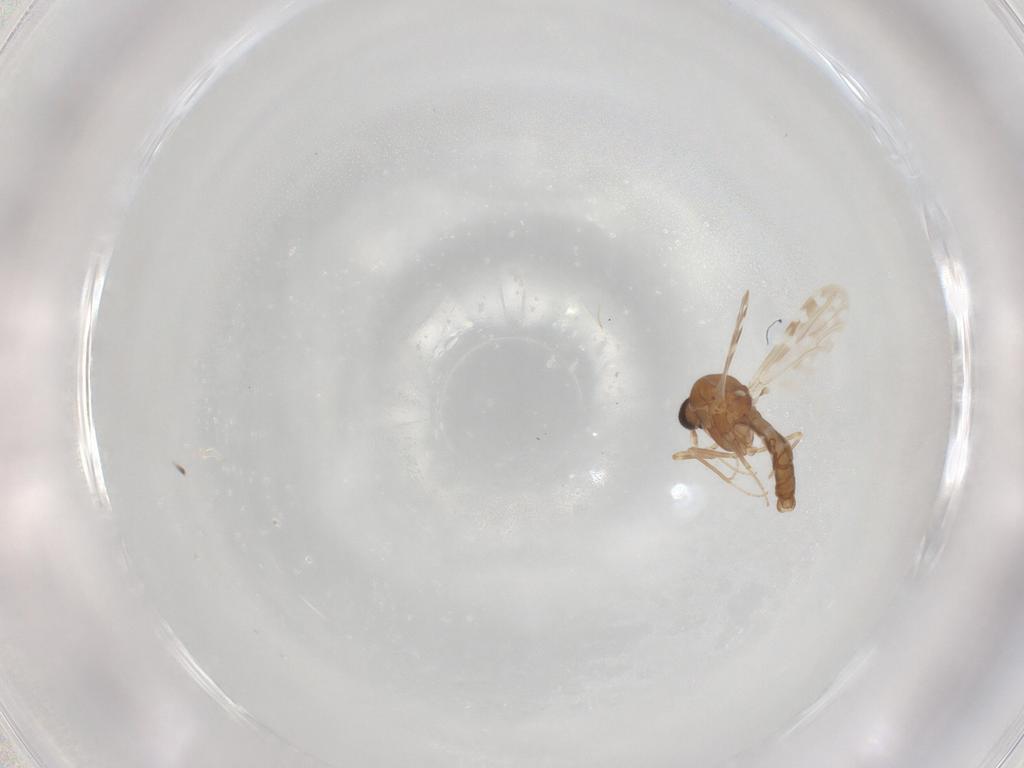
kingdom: Animalia
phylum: Arthropoda
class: Insecta
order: Diptera
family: Ceratopogonidae
